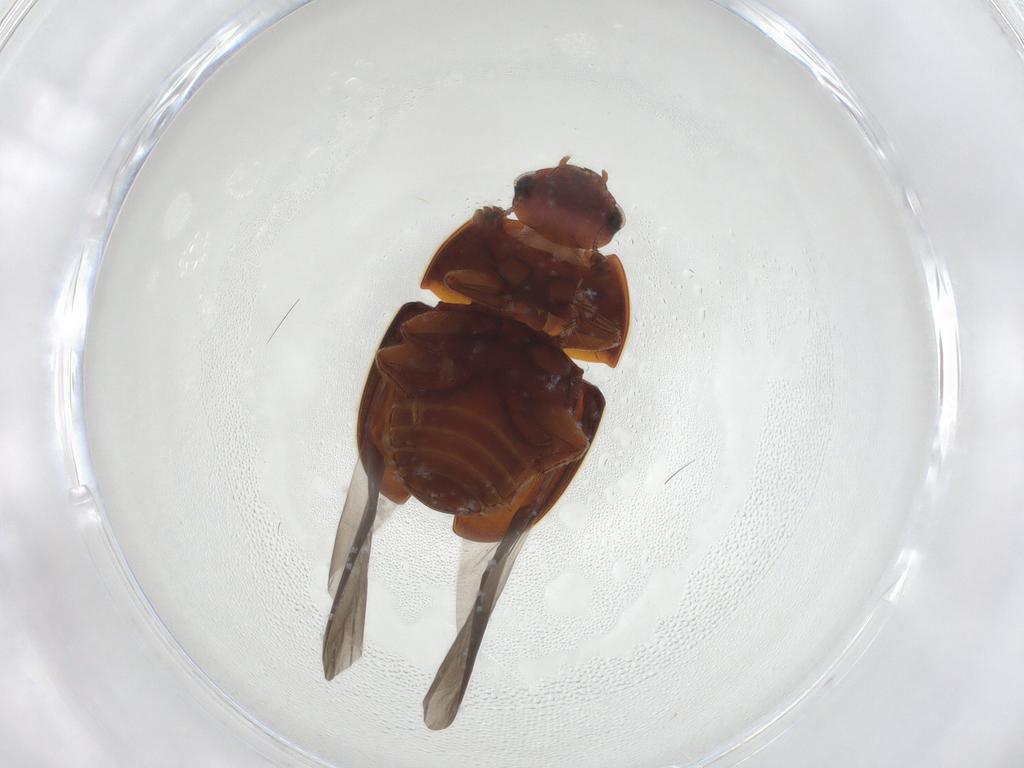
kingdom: Animalia
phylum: Arthropoda
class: Insecta
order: Coleoptera
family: Nitidulidae
